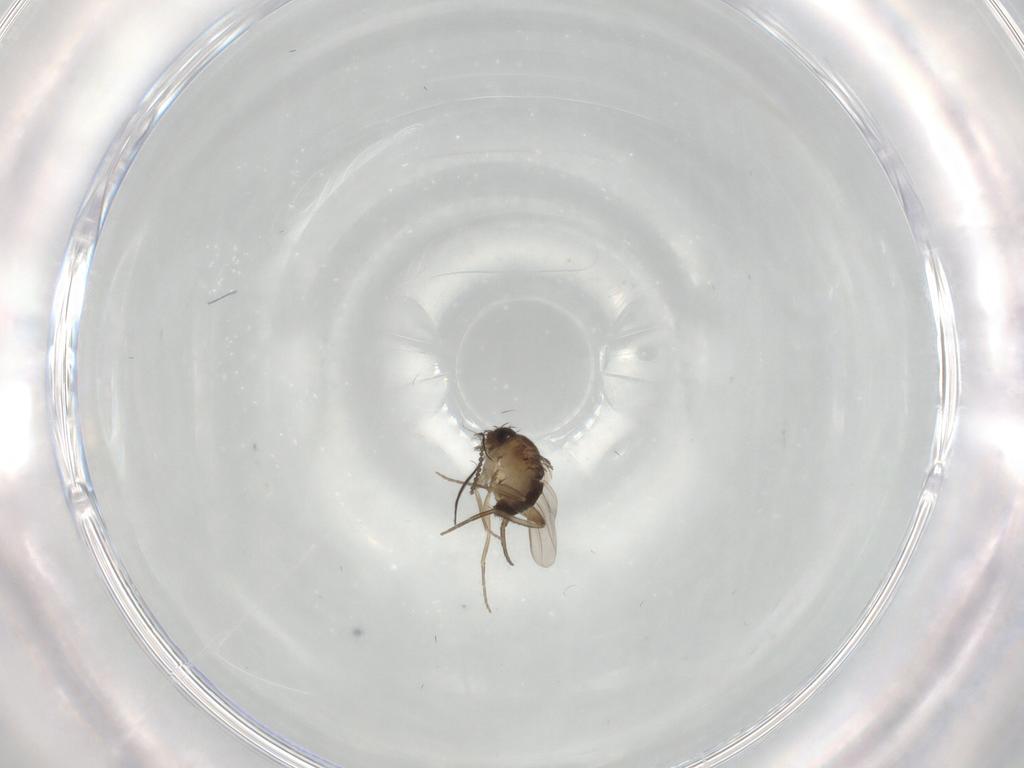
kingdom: Animalia
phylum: Arthropoda
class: Insecta
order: Diptera
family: Phoridae
